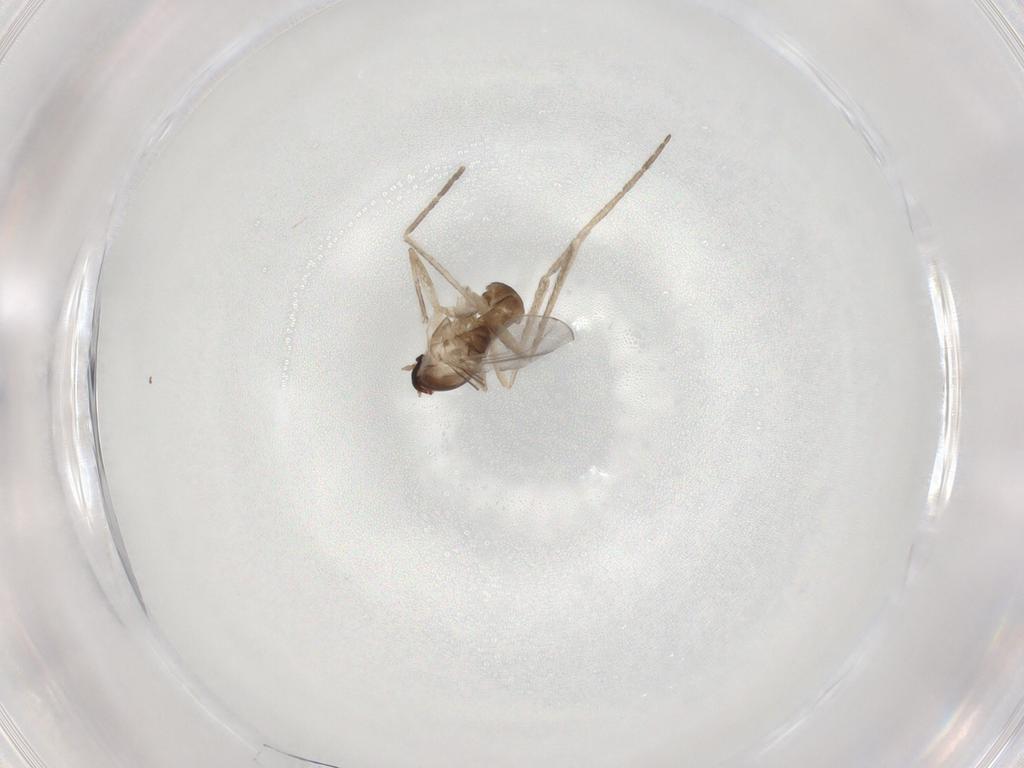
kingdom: Animalia
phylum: Arthropoda
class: Insecta
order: Diptera
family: Cecidomyiidae
